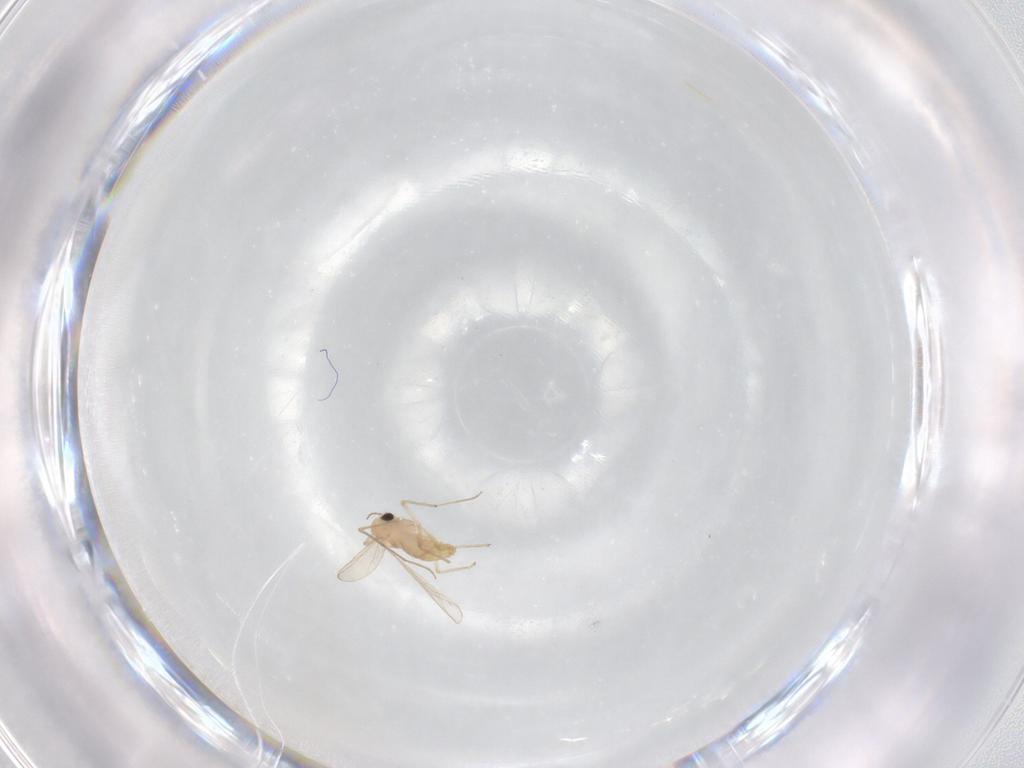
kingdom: Animalia
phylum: Arthropoda
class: Insecta
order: Diptera
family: Chironomidae
